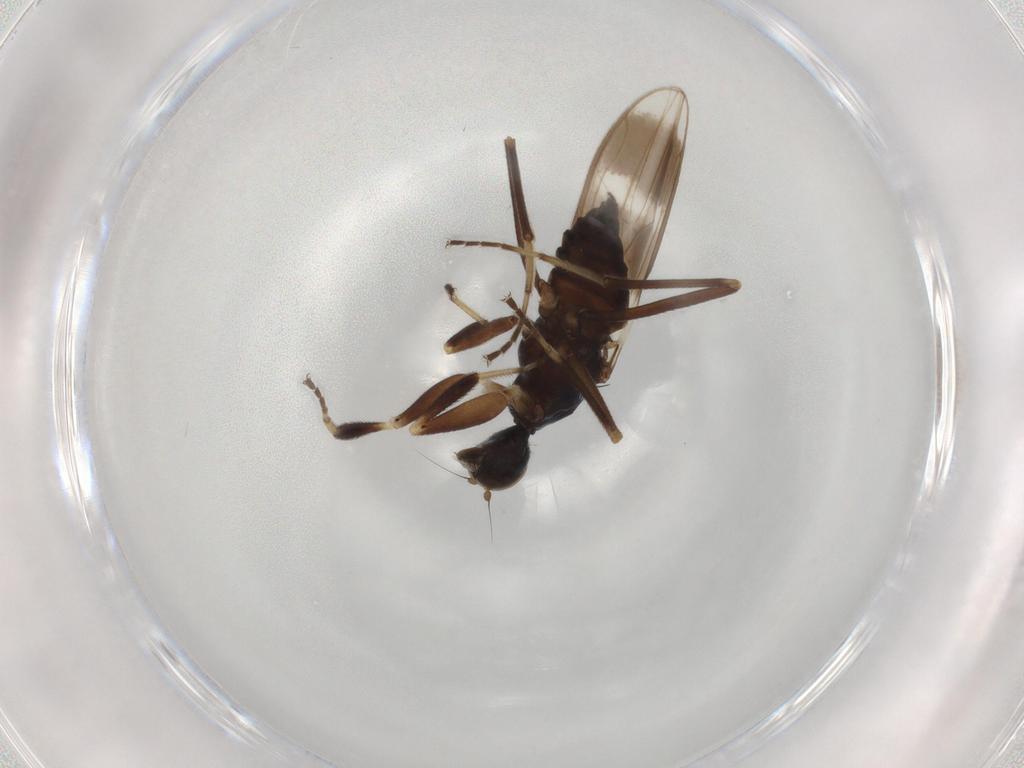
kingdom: Animalia
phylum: Arthropoda
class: Insecta
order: Diptera
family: Hybotidae
